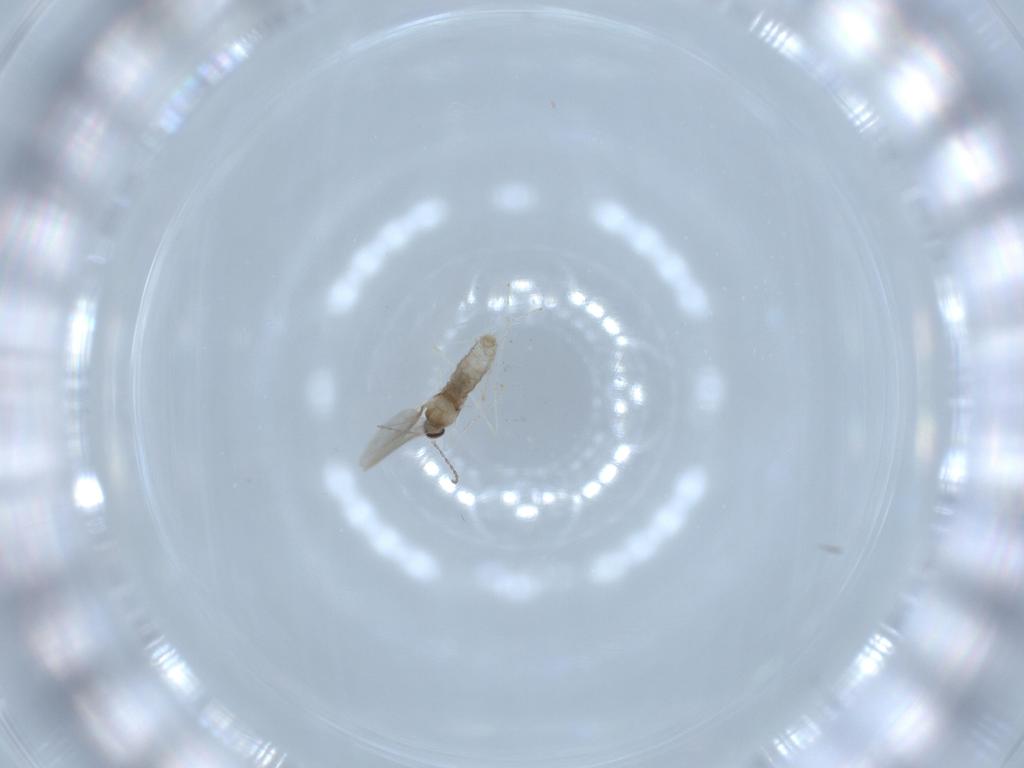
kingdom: Animalia
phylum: Arthropoda
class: Insecta
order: Diptera
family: Cecidomyiidae
